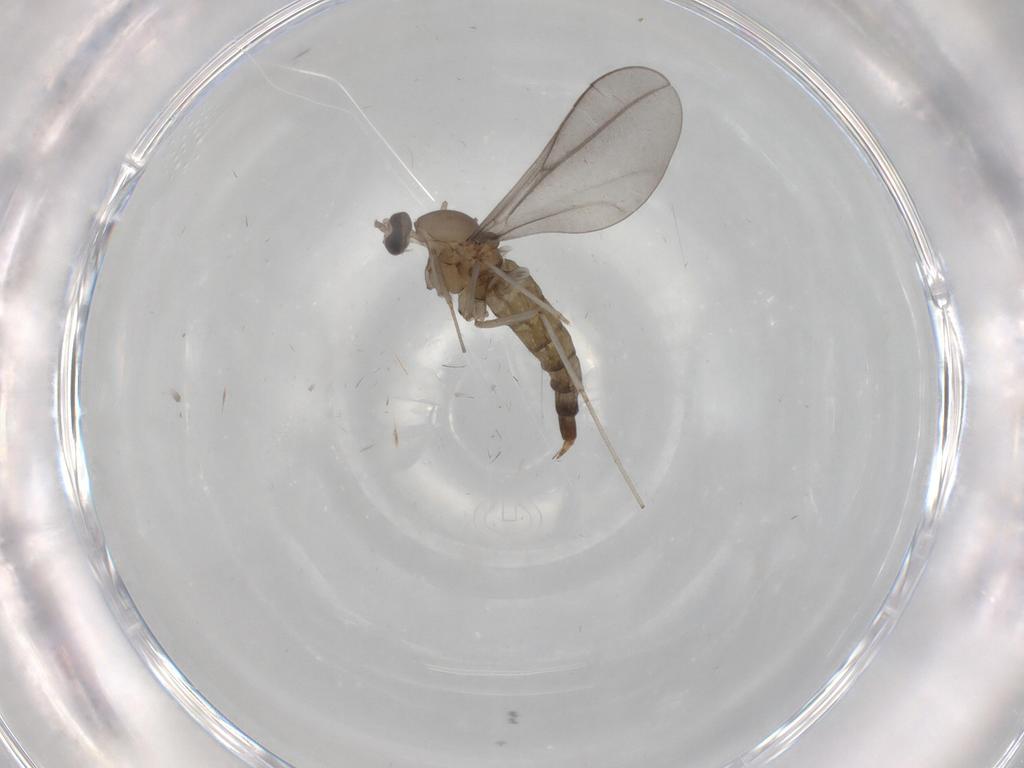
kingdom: Animalia
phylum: Arthropoda
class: Insecta
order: Diptera
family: Cecidomyiidae
